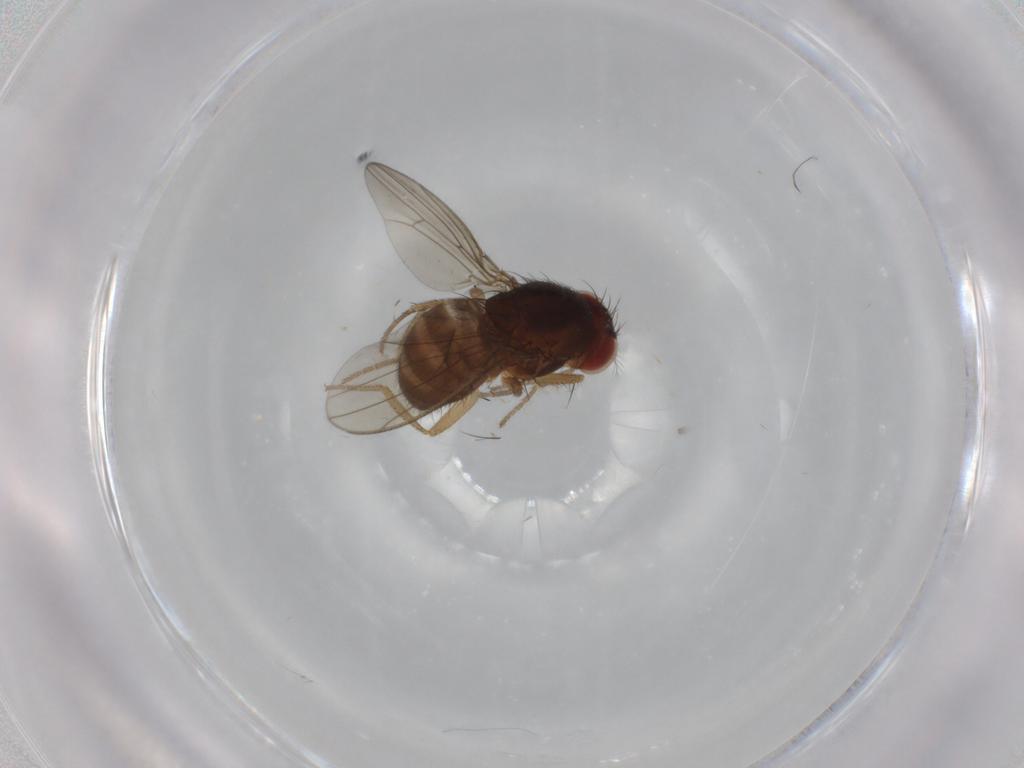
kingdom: Animalia
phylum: Arthropoda
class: Insecta
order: Diptera
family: Drosophilidae
